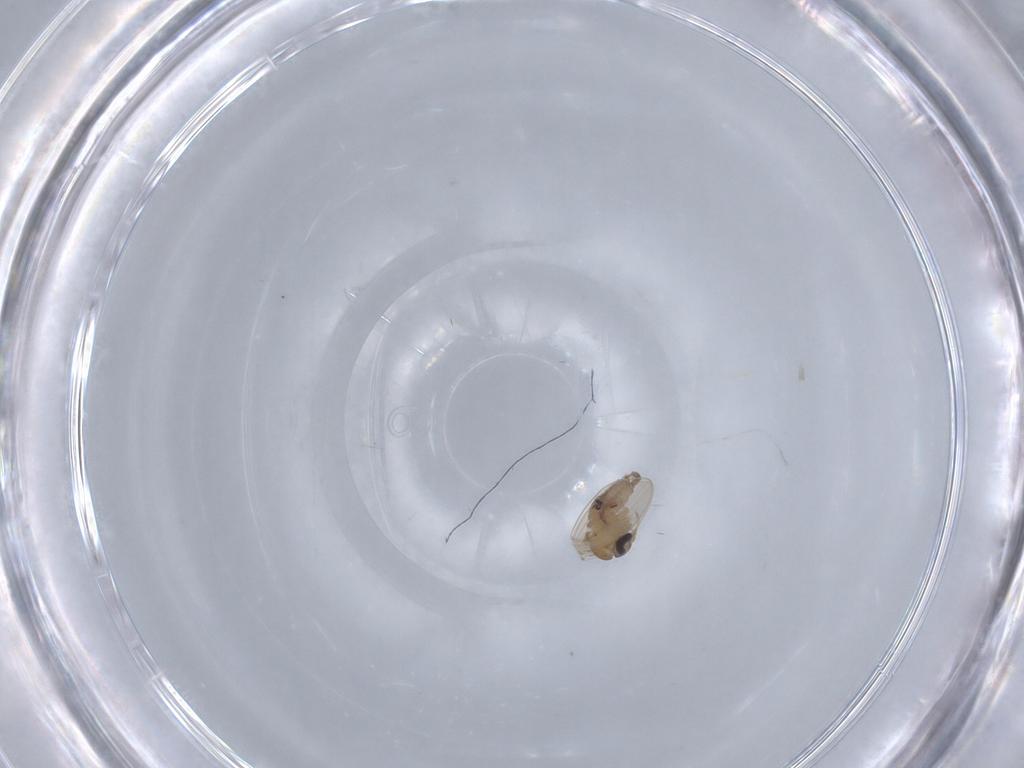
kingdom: Animalia
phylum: Arthropoda
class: Insecta
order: Diptera
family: Psychodidae
